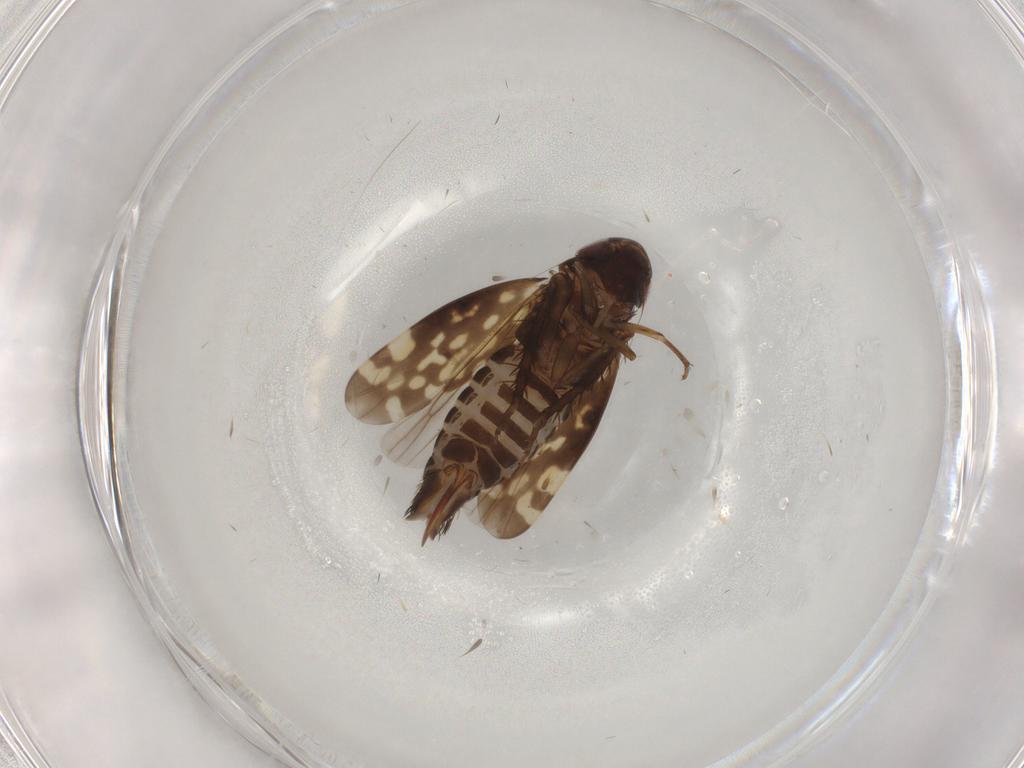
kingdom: Animalia
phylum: Arthropoda
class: Insecta
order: Hemiptera
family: Cicadellidae
